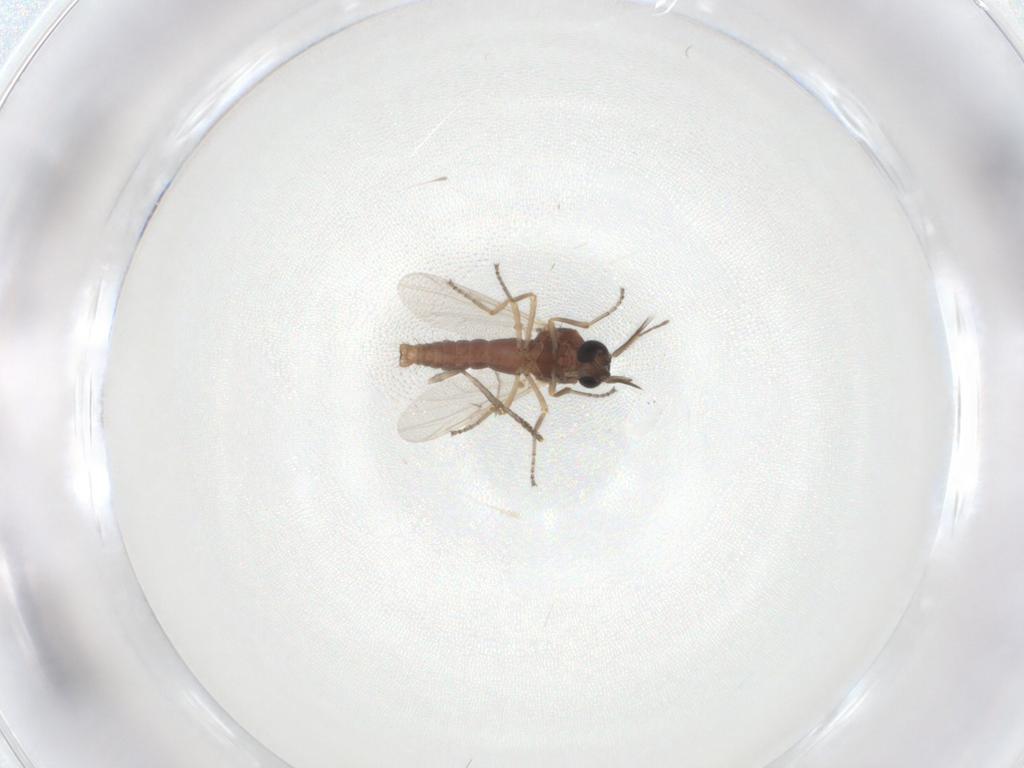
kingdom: Animalia
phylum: Arthropoda
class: Insecta
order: Diptera
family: Ceratopogonidae
